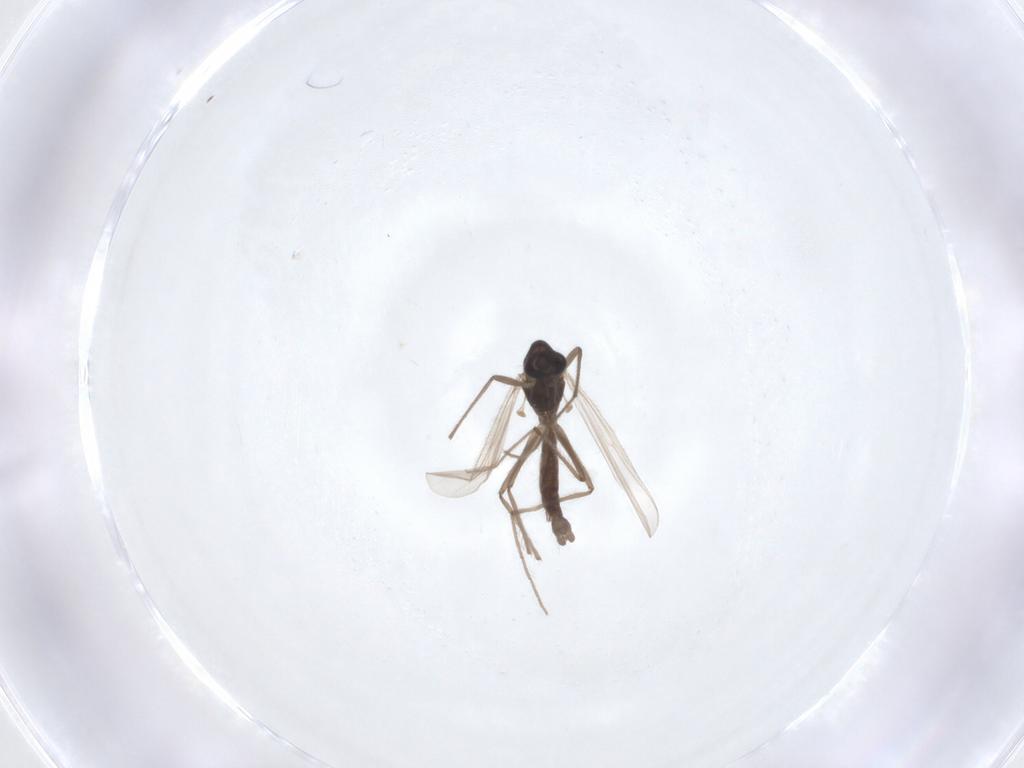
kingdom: Animalia
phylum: Arthropoda
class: Insecta
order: Diptera
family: Chironomidae
